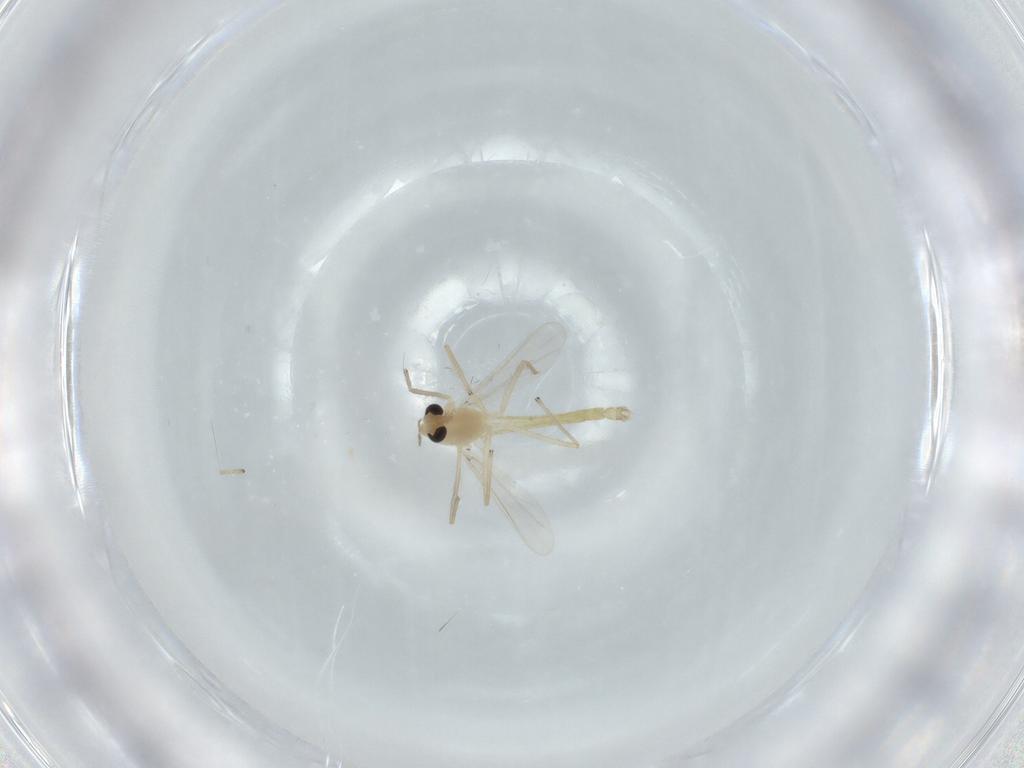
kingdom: Animalia
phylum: Arthropoda
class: Insecta
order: Diptera
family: Chironomidae
